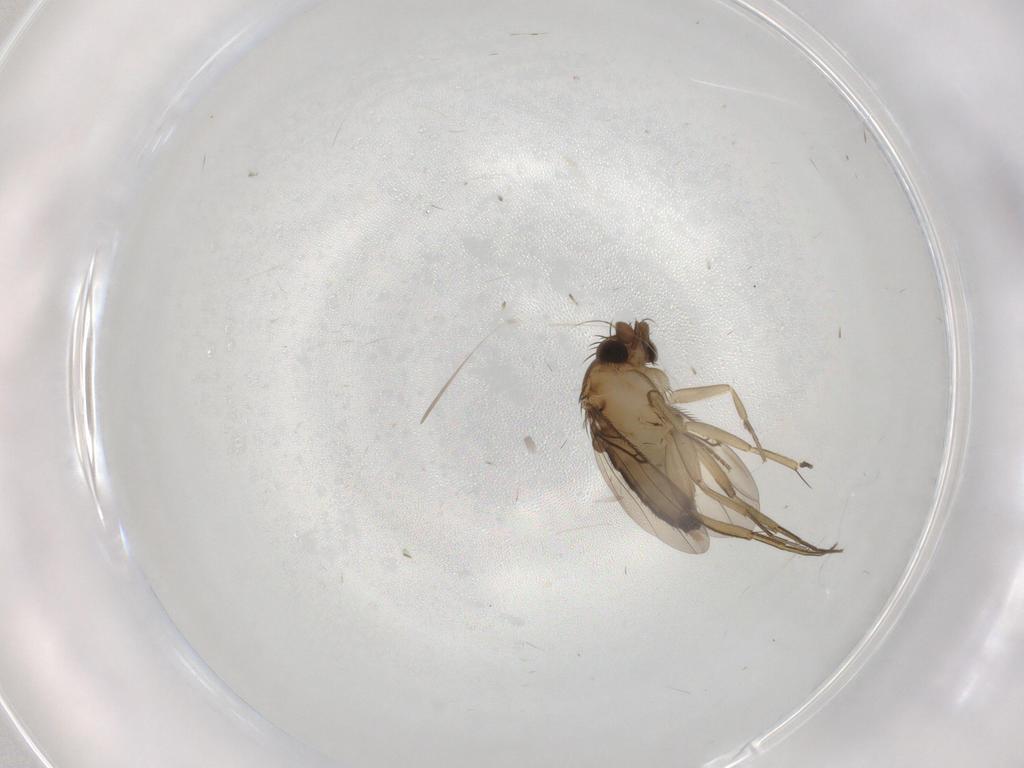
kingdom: Animalia
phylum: Arthropoda
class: Insecta
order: Diptera
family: Phoridae
